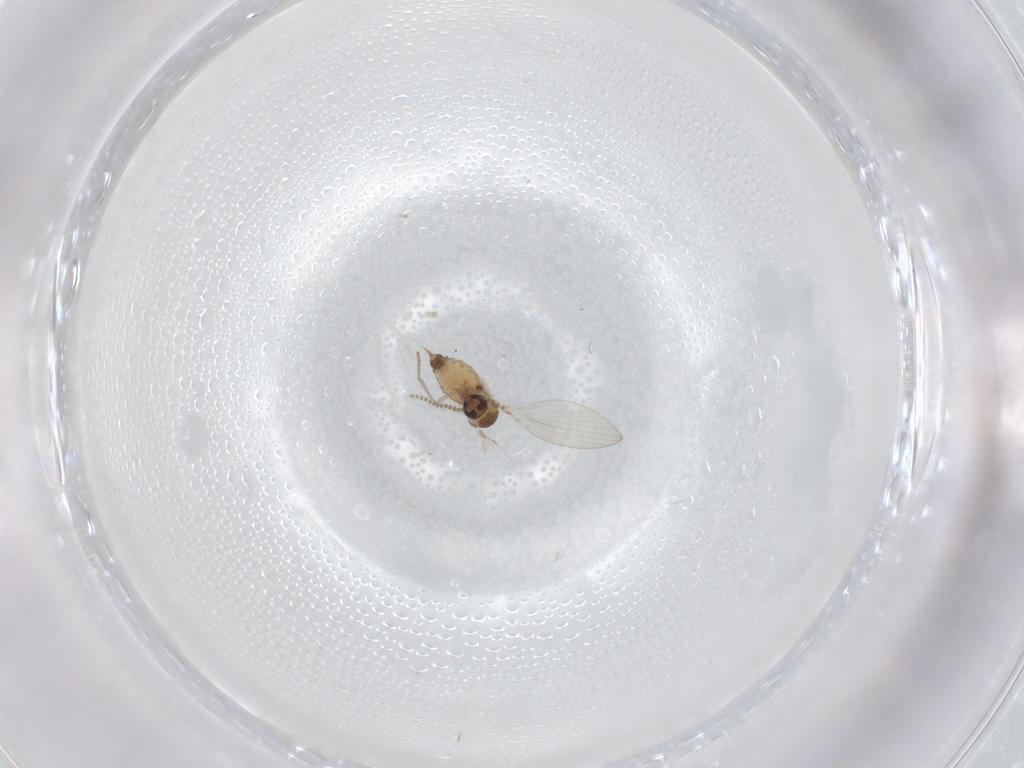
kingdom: Animalia
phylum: Arthropoda
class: Insecta
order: Diptera
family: Psychodidae
